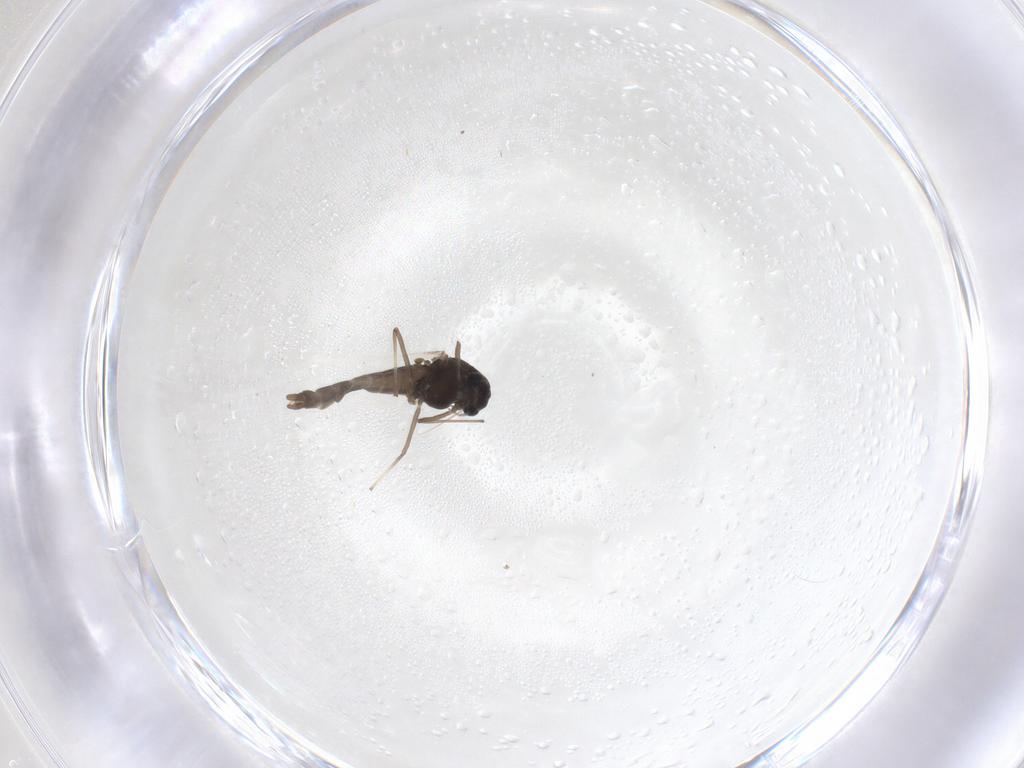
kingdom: Animalia
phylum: Arthropoda
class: Insecta
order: Diptera
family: Chironomidae
